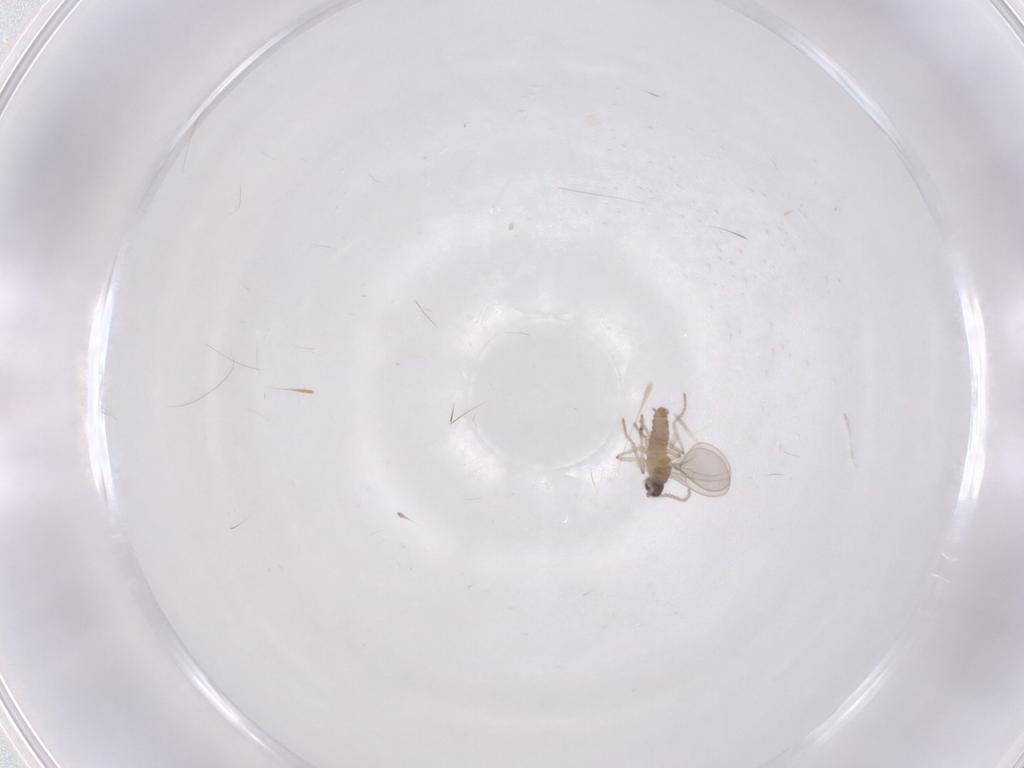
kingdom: Animalia
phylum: Arthropoda
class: Insecta
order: Diptera
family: Cecidomyiidae
